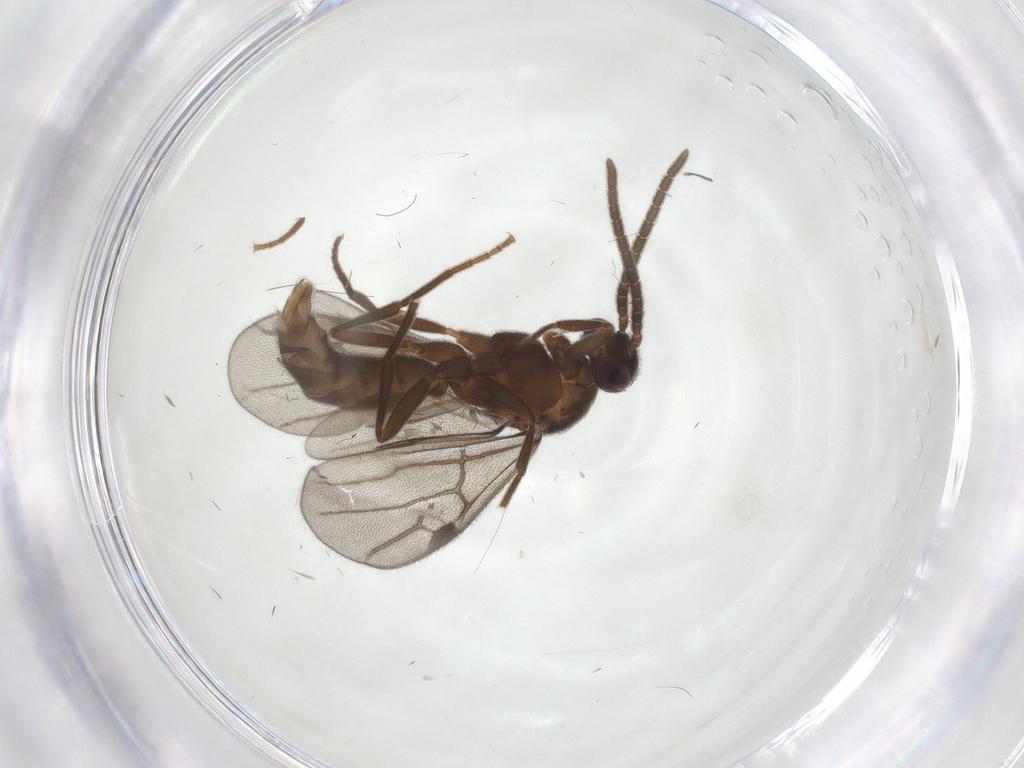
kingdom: Animalia
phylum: Arthropoda
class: Insecta
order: Hymenoptera
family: Formicidae
